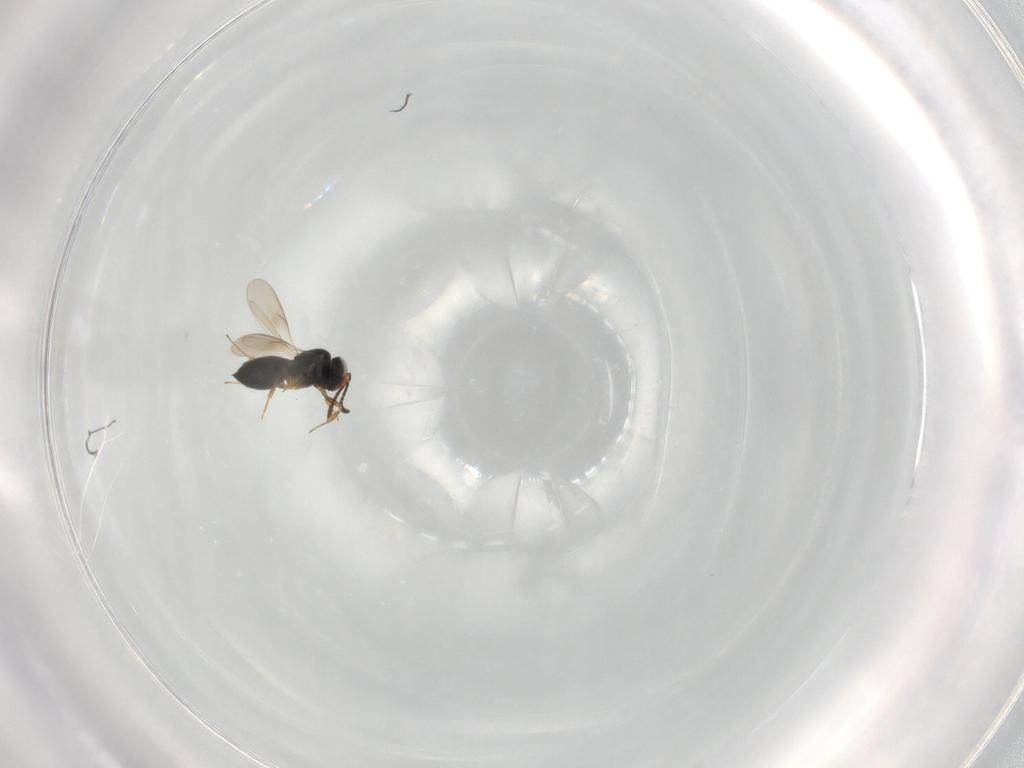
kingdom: Animalia
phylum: Arthropoda
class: Insecta
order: Hymenoptera
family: Scelionidae
